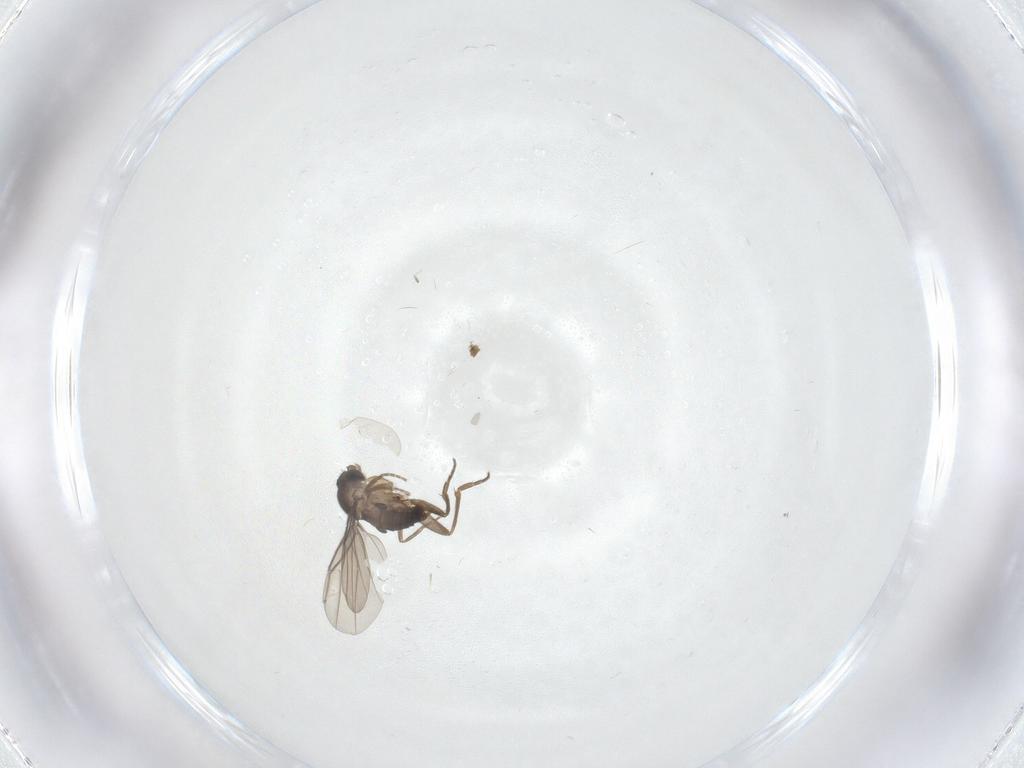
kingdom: Animalia
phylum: Arthropoda
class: Insecta
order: Diptera
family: Phoridae
